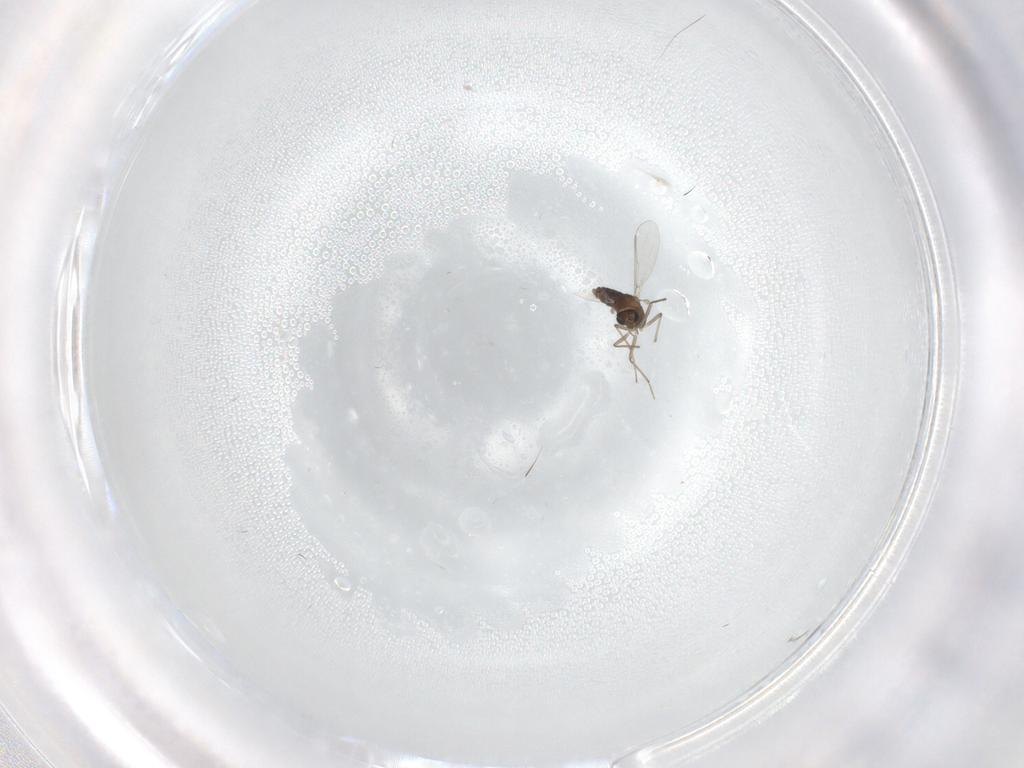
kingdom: Animalia
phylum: Arthropoda
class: Insecta
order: Diptera
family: Chironomidae
